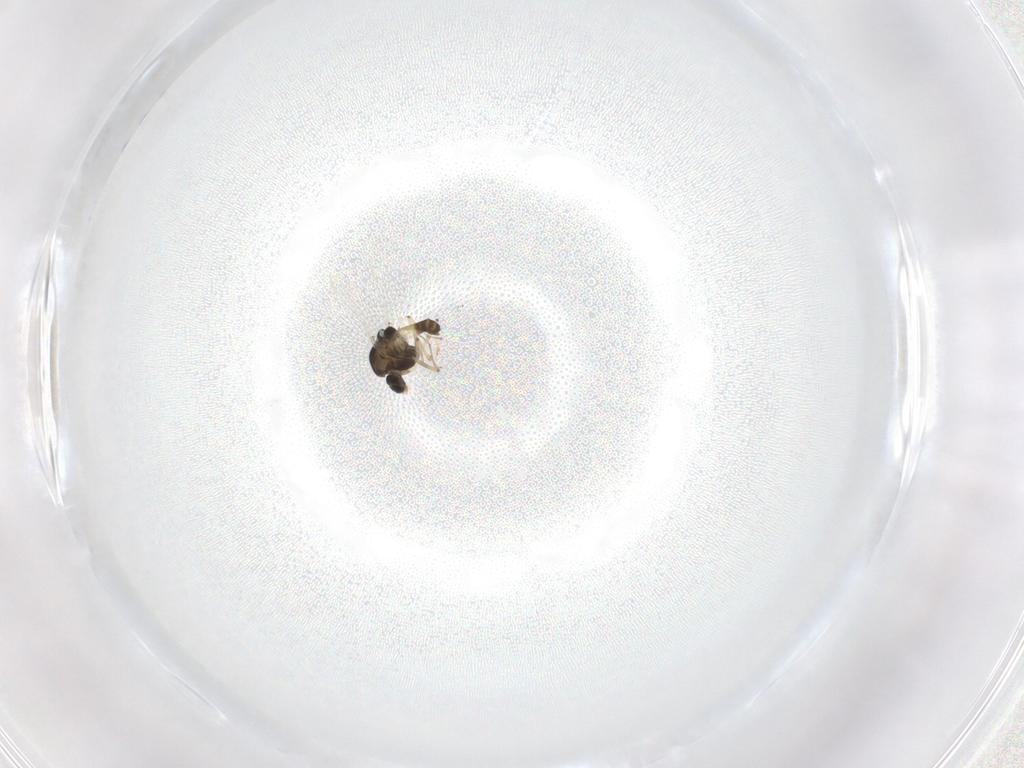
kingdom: Animalia
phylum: Arthropoda
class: Insecta
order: Diptera
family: Chironomidae
